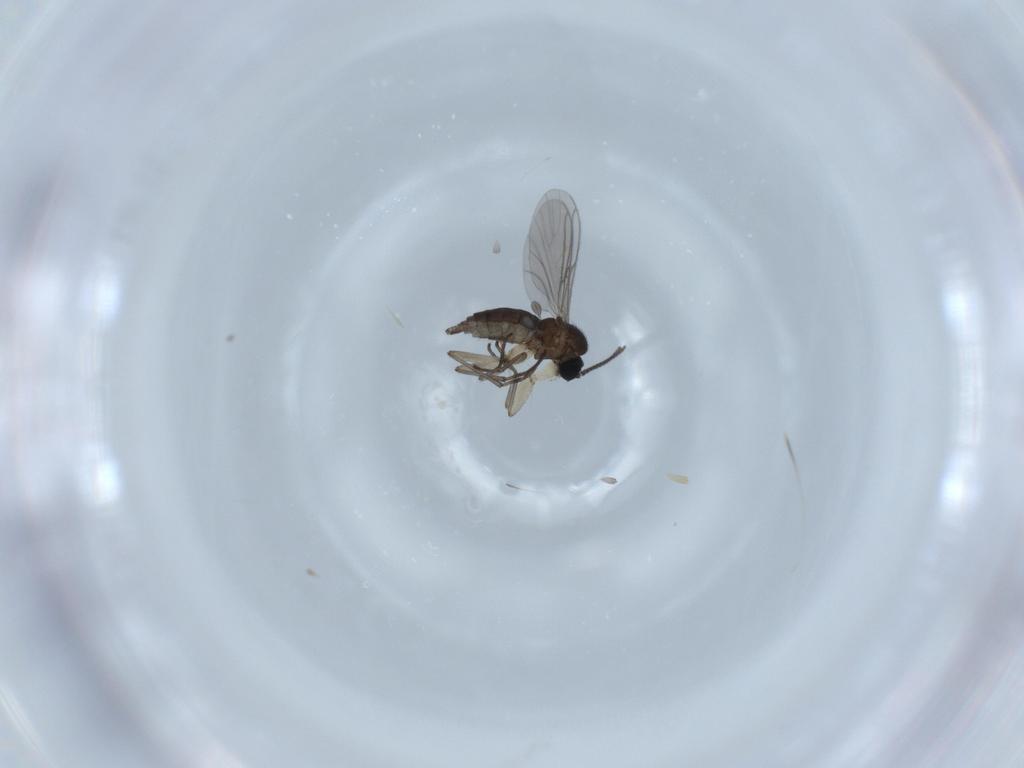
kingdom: Animalia
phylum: Arthropoda
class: Insecta
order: Diptera
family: Sciaridae
